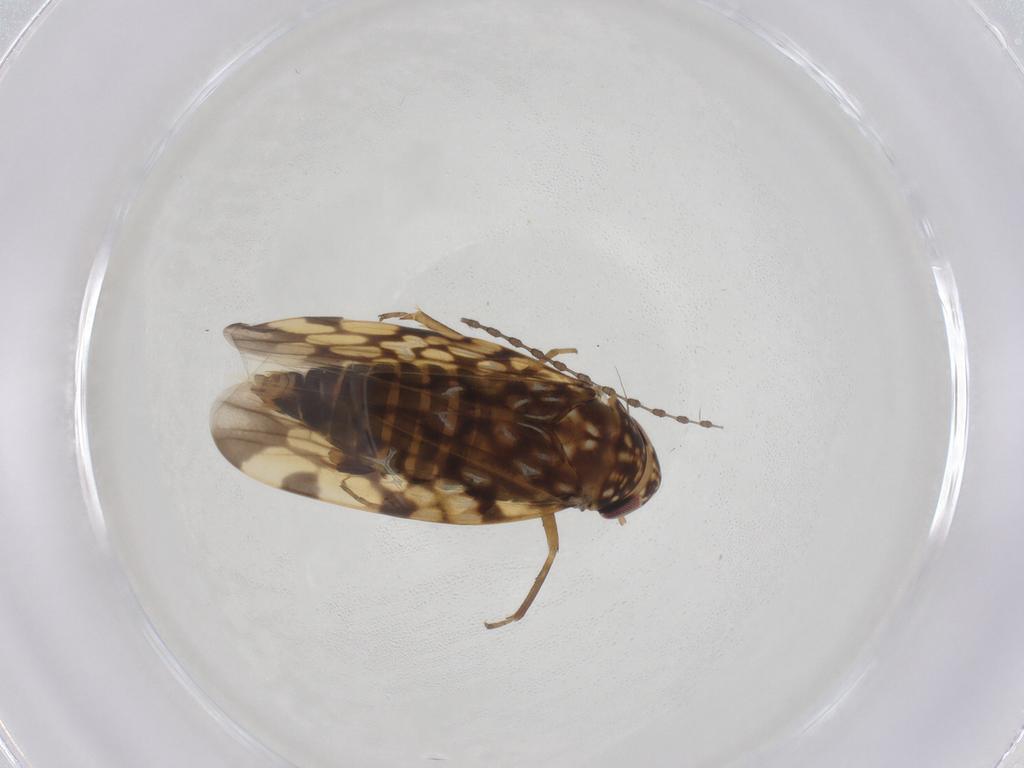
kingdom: Animalia
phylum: Arthropoda
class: Insecta
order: Hemiptera
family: Cicadellidae
